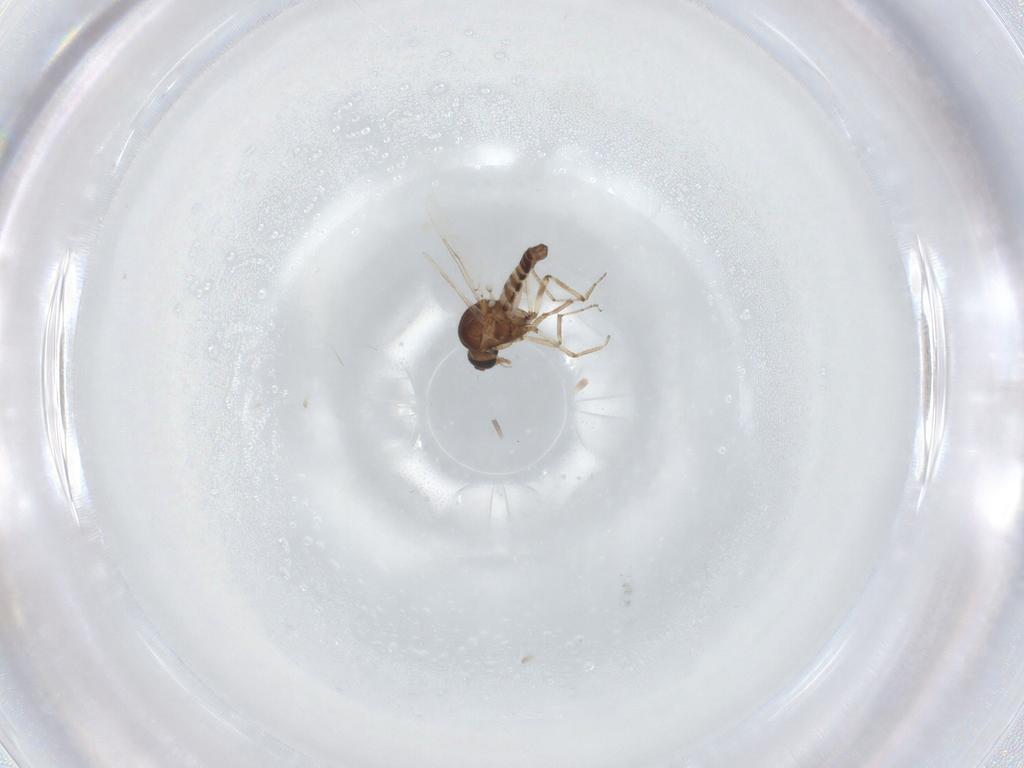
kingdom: Animalia
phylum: Arthropoda
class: Insecta
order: Diptera
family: Ceratopogonidae
